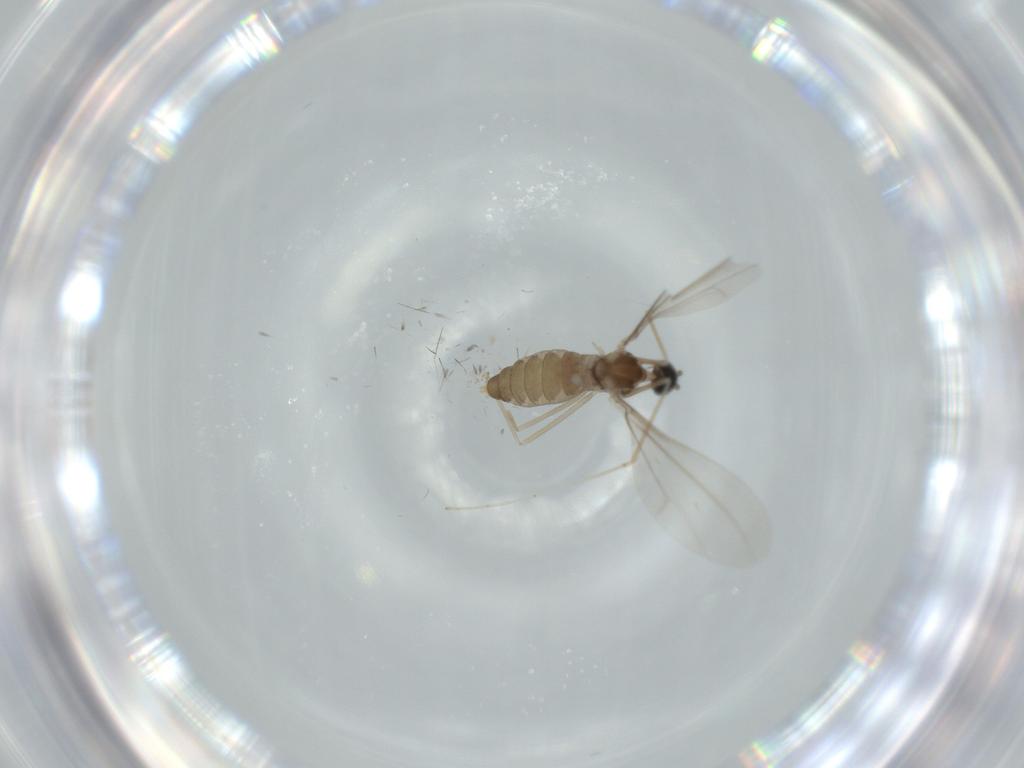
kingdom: Animalia
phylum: Arthropoda
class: Insecta
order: Diptera
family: Cecidomyiidae
